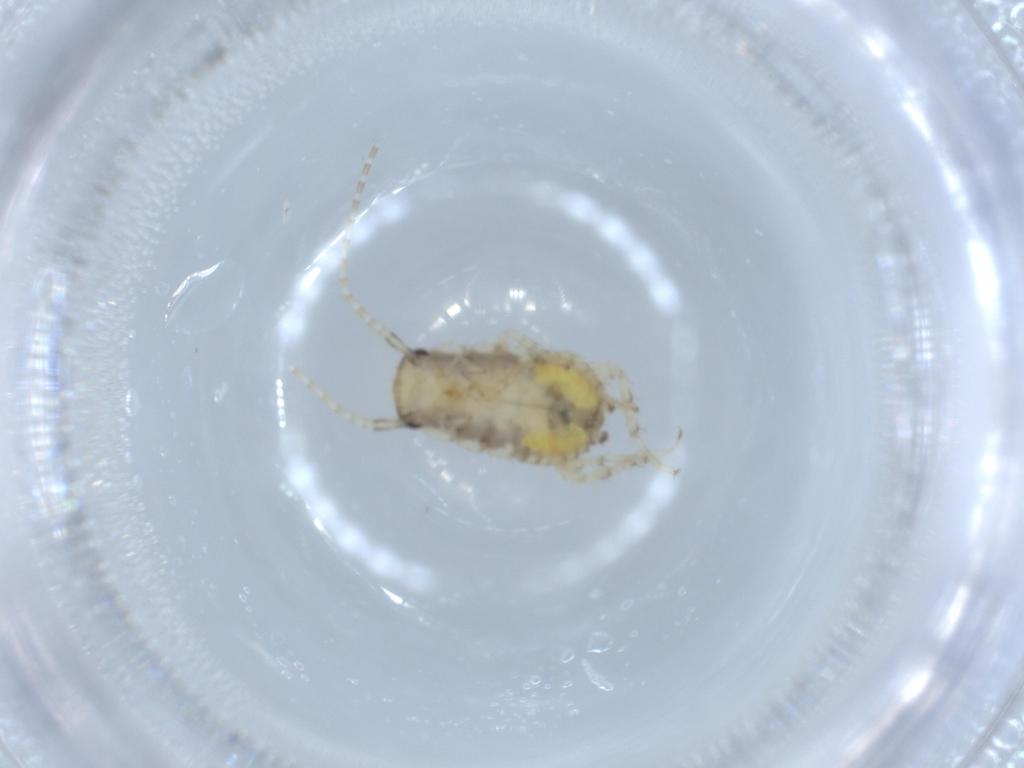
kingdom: Animalia
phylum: Arthropoda
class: Insecta
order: Blattodea
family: Ectobiidae
